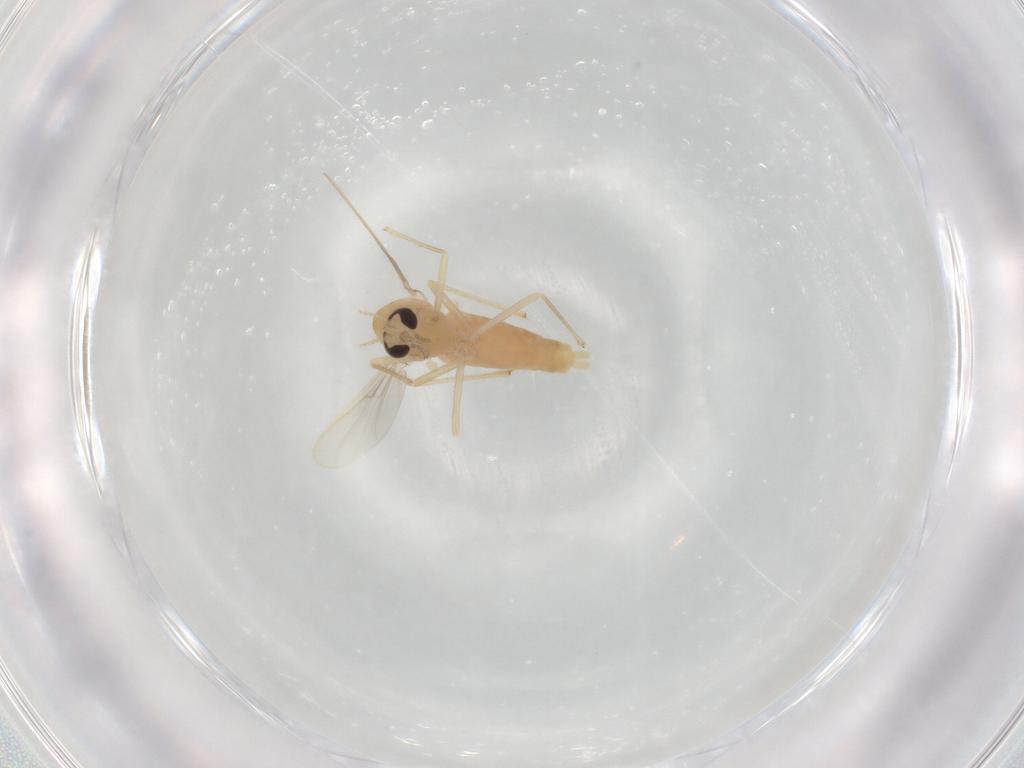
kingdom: Animalia
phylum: Arthropoda
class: Insecta
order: Diptera
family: Chironomidae
